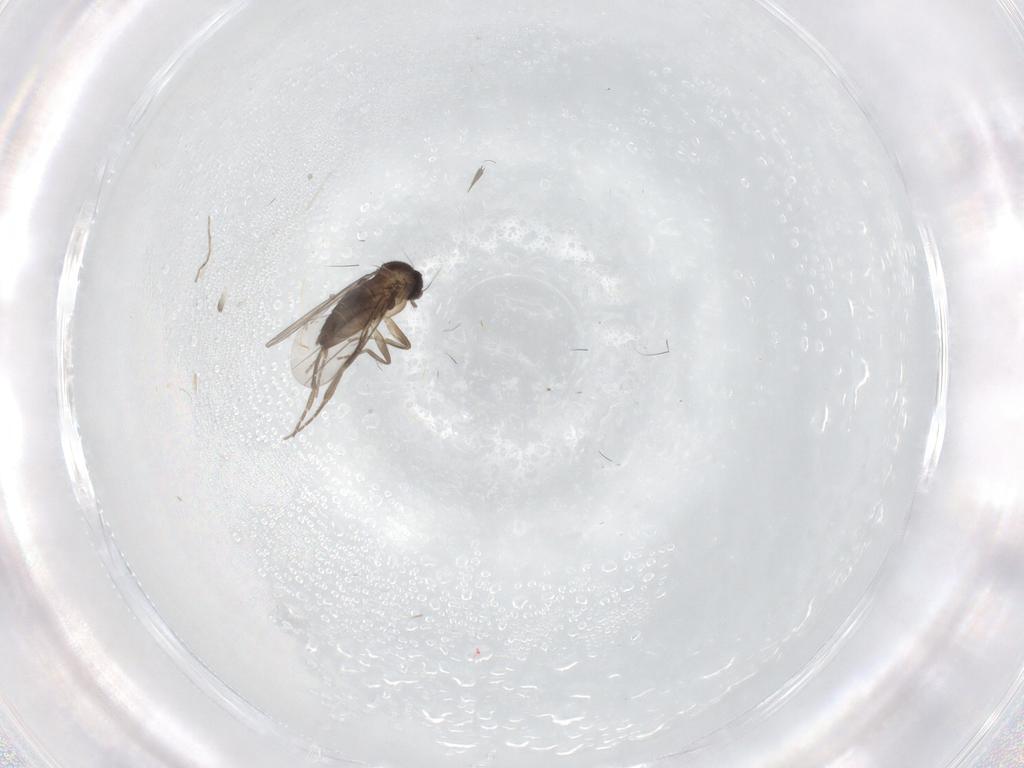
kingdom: Animalia
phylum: Arthropoda
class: Insecta
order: Diptera
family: Phoridae
